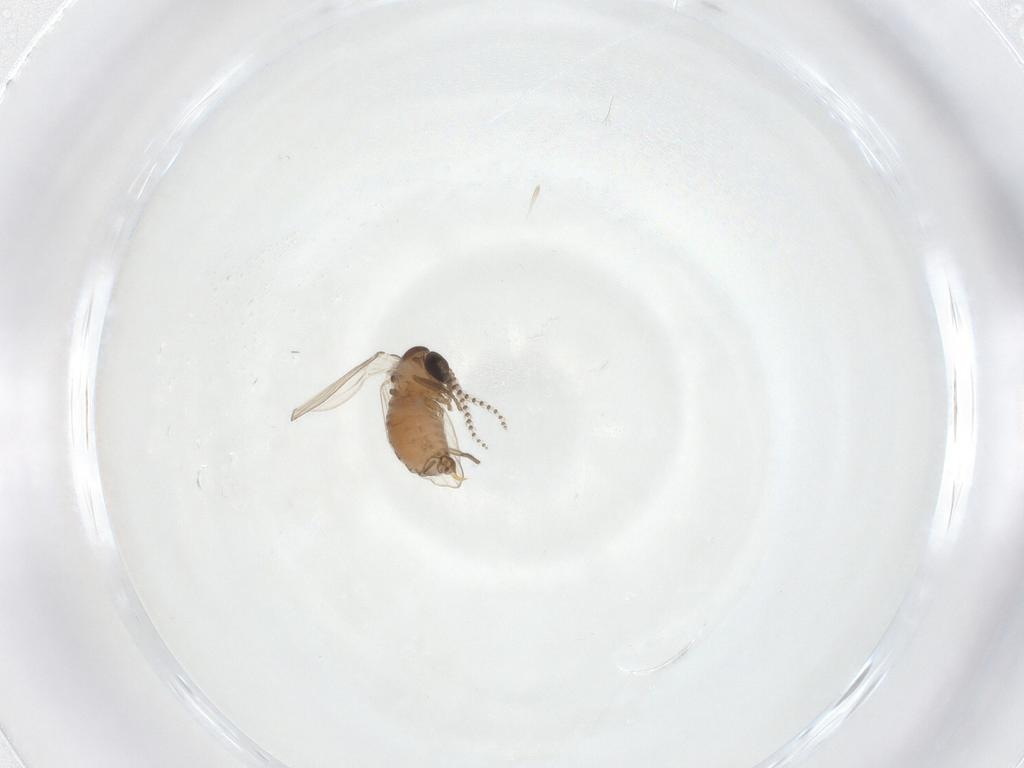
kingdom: Animalia
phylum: Arthropoda
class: Insecta
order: Diptera
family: Psychodidae
